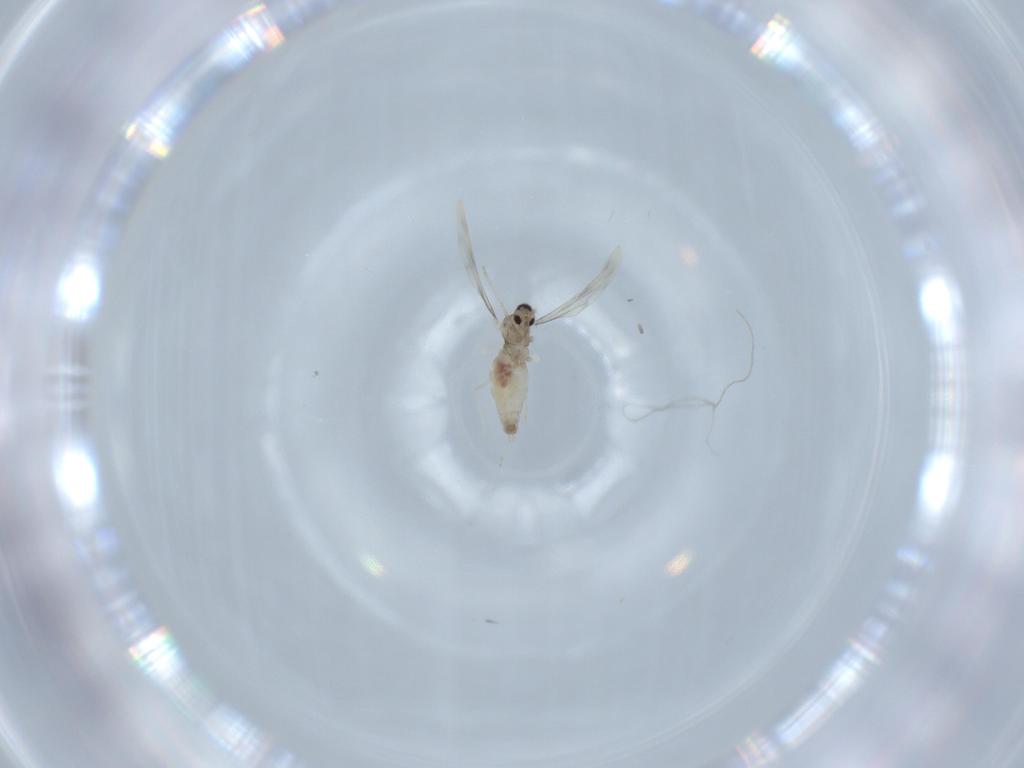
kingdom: Animalia
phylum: Arthropoda
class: Insecta
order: Diptera
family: Cecidomyiidae
